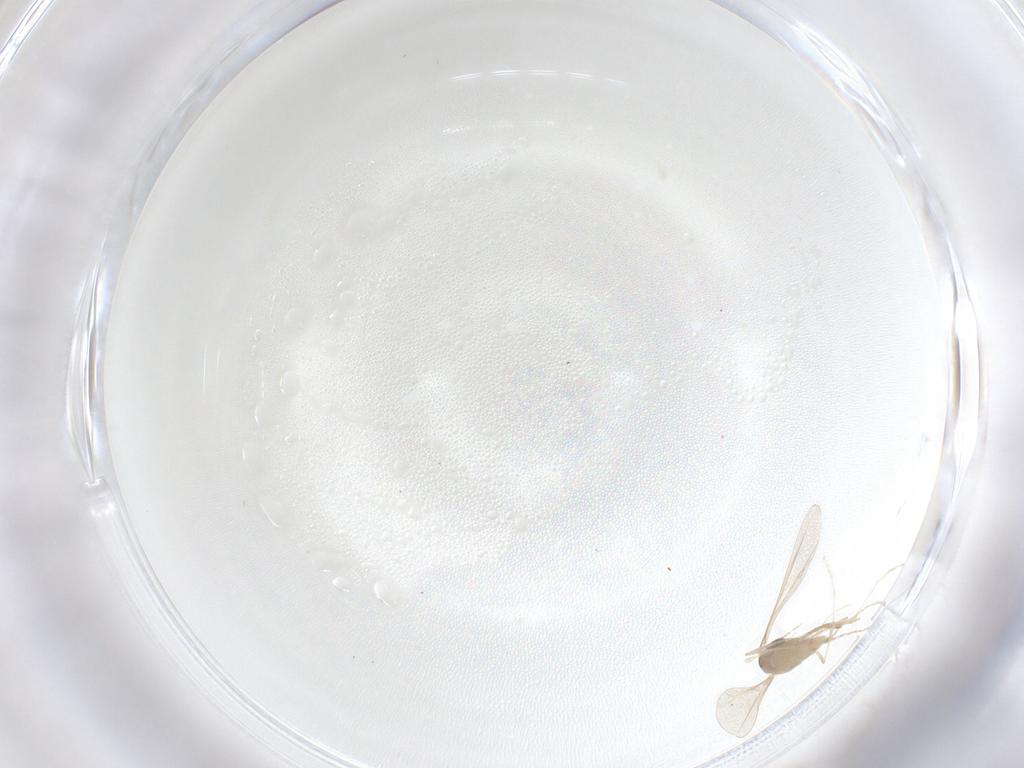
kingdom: Animalia
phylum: Arthropoda
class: Insecta
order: Diptera
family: Cecidomyiidae
